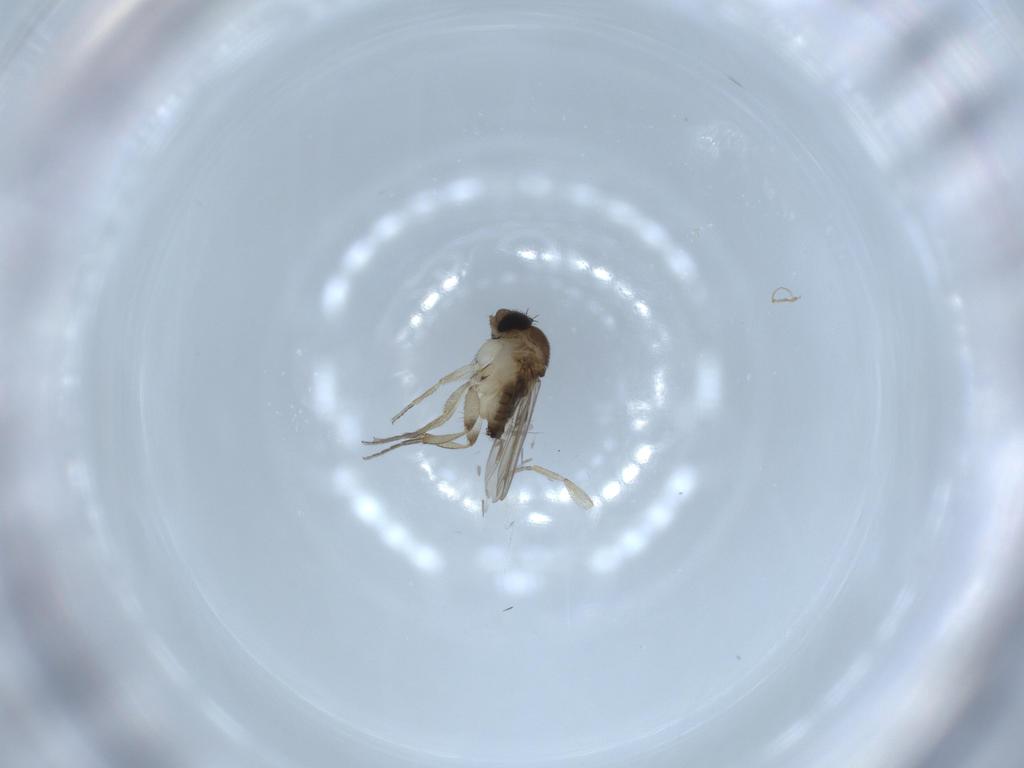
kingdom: Animalia
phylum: Arthropoda
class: Insecta
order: Diptera
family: Phoridae
